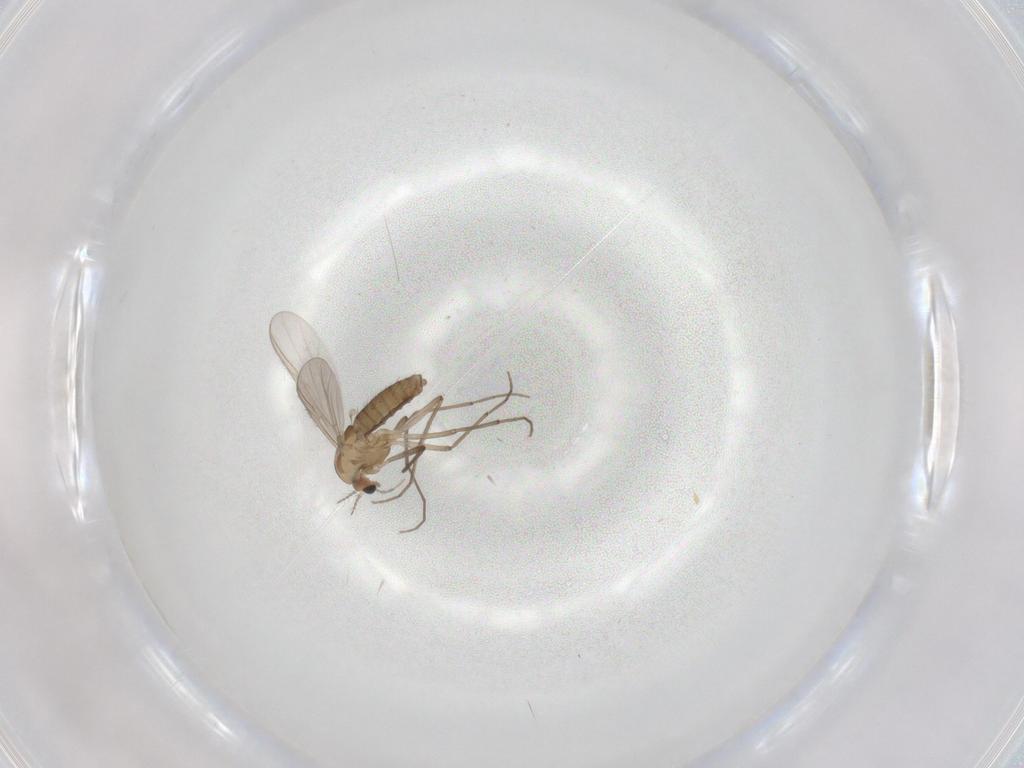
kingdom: Animalia
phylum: Arthropoda
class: Insecta
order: Diptera
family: Chironomidae
